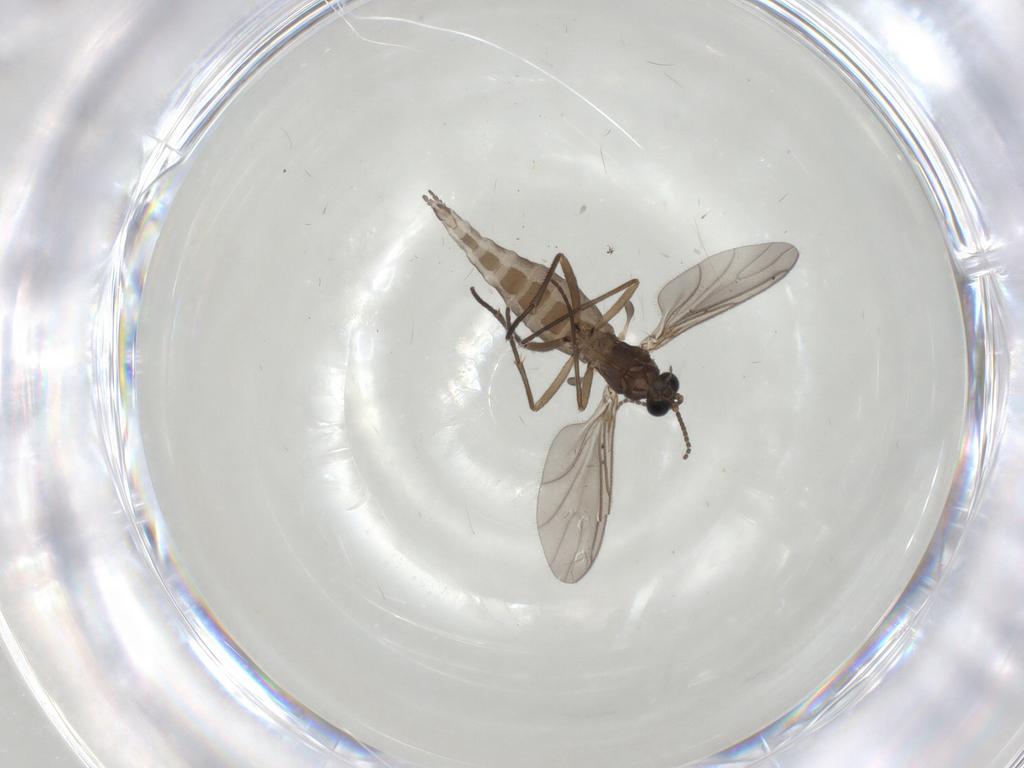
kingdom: Animalia
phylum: Arthropoda
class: Insecta
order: Diptera
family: Sciaridae
